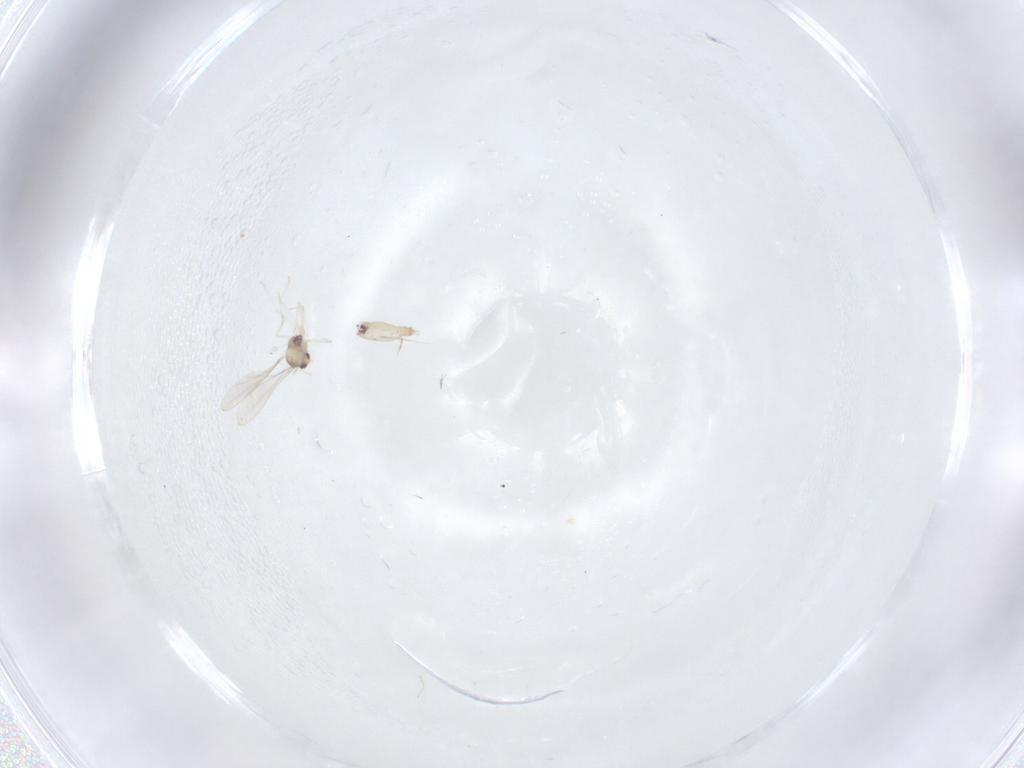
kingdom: Animalia
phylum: Arthropoda
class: Insecta
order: Diptera
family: Cecidomyiidae
